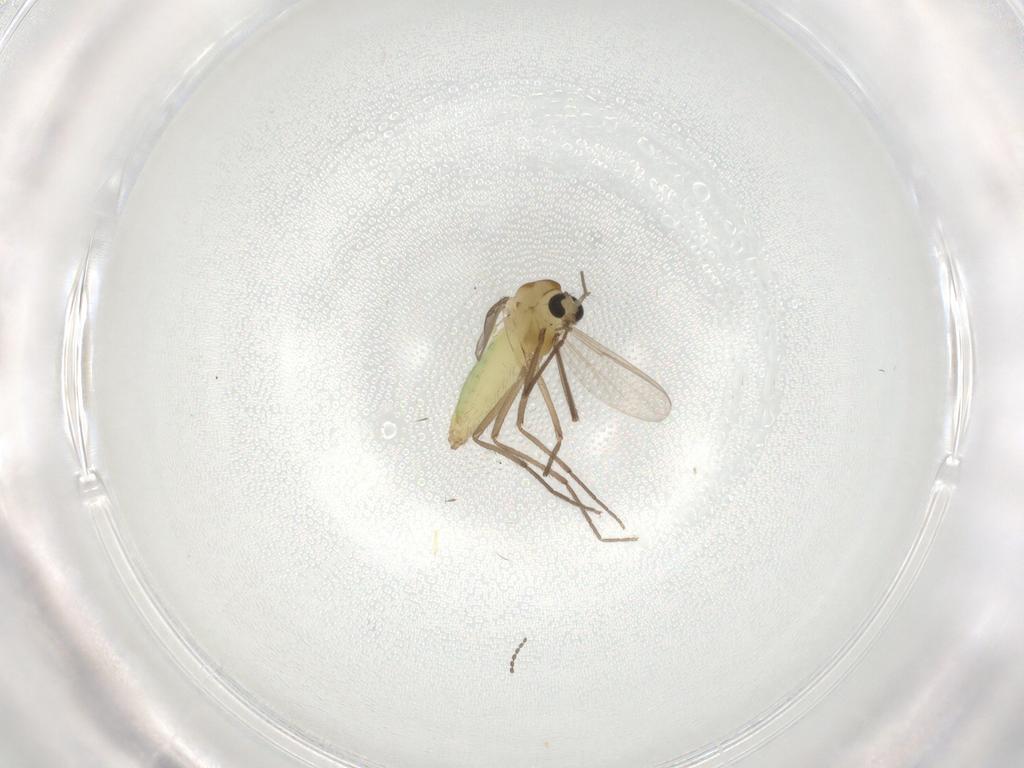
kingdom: Animalia
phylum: Arthropoda
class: Insecta
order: Diptera
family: Chironomidae
